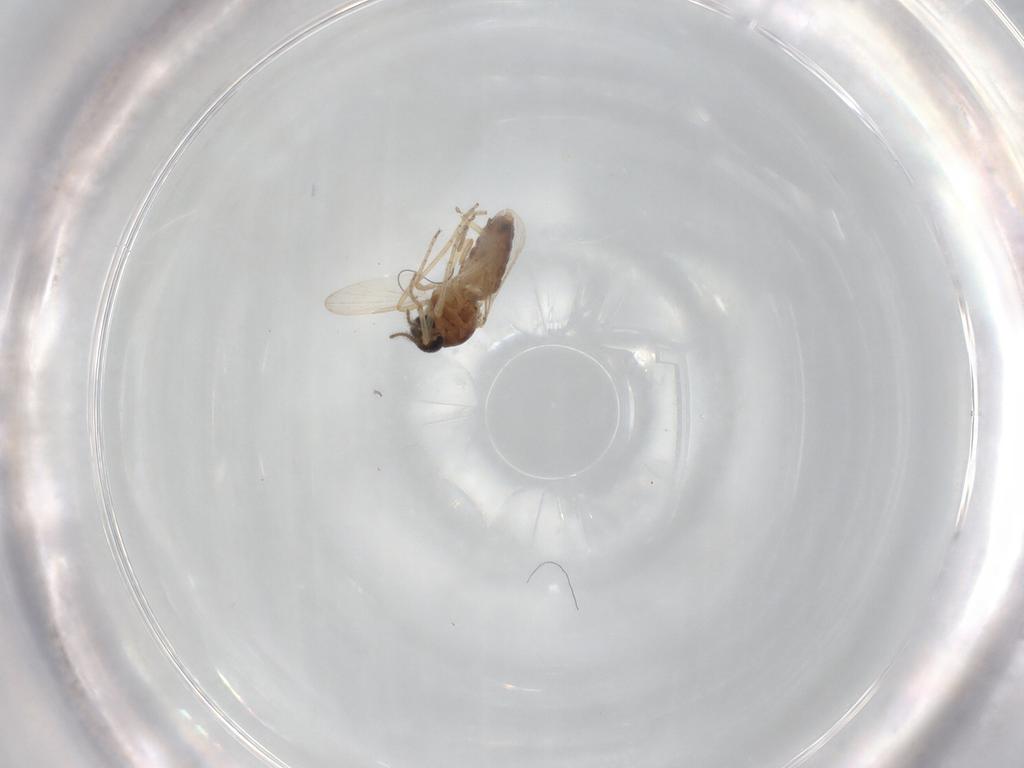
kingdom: Animalia
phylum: Arthropoda
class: Insecta
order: Diptera
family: Ceratopogonidae
